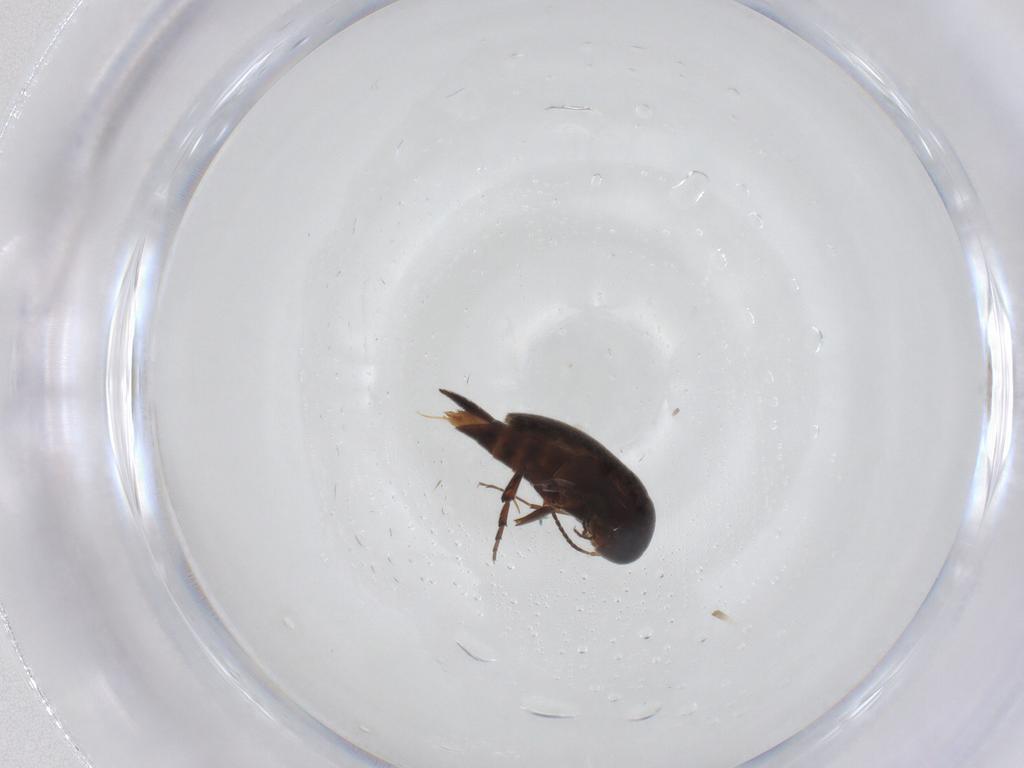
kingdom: Animalia
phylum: Arthropoda
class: Insecta
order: Coleoptera
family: Mordellidae
